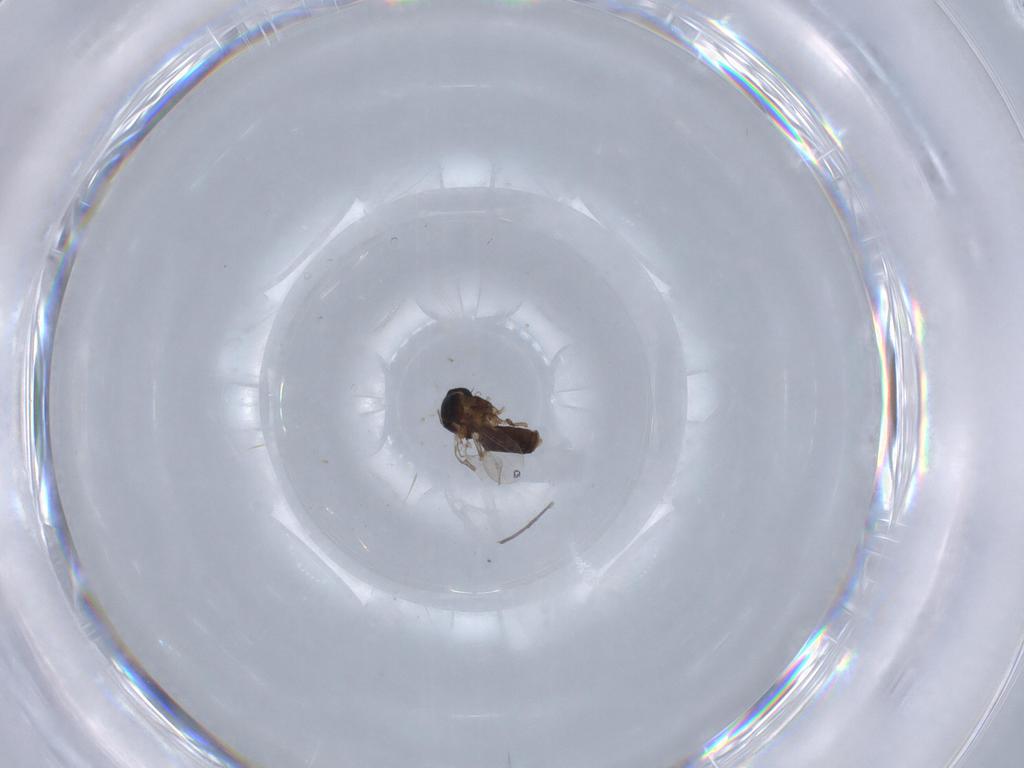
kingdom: Animalia
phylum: Arthropoda
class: Insecta
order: Diptera
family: Ceratopogonidae
